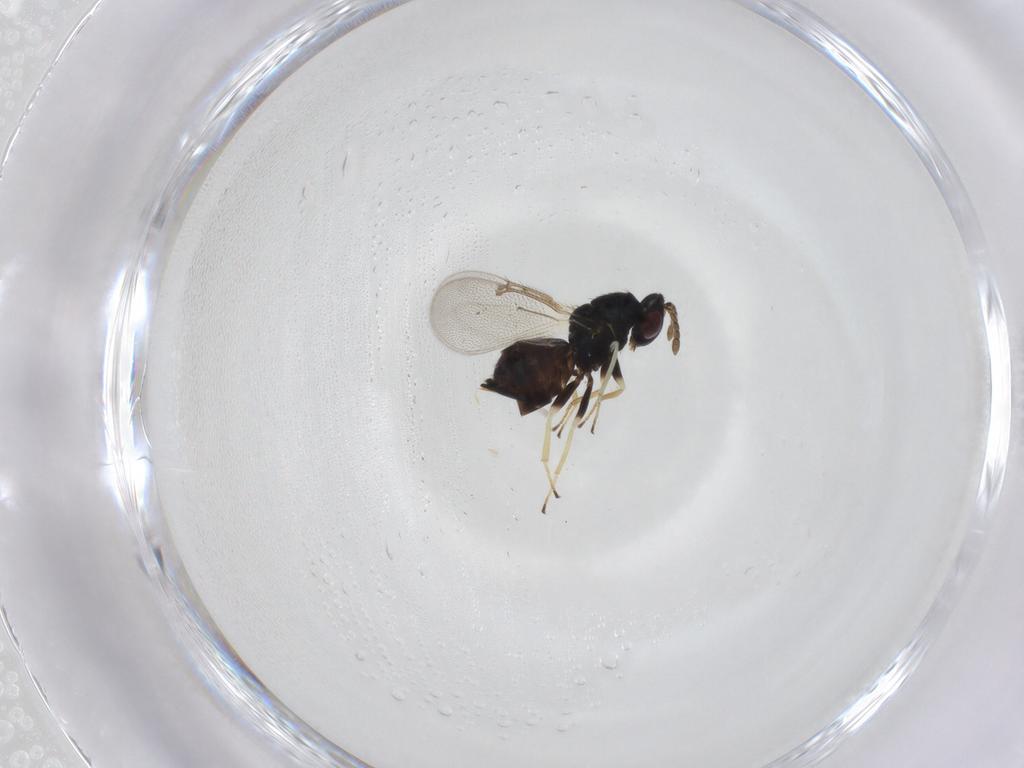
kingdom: Animalia
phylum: Arthropoda
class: Insecta
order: Hymenoptera
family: Eulophidae
